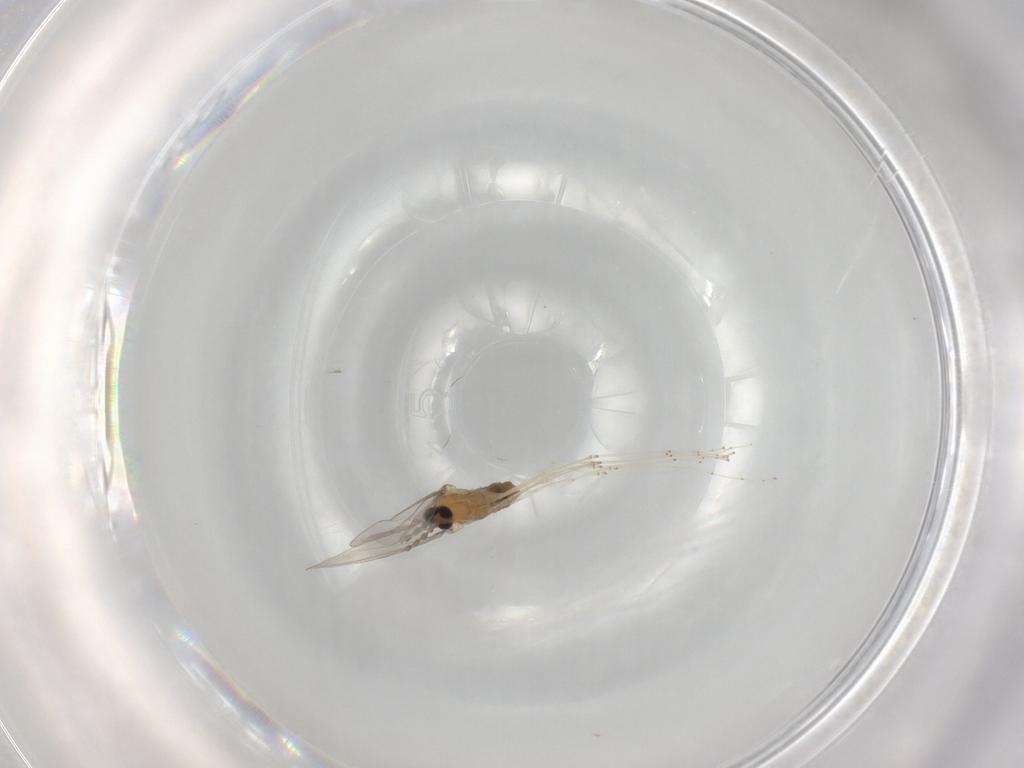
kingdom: Animalia
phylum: Arthropoda
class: Insecta
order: Diptera
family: Cecidomyiidae
